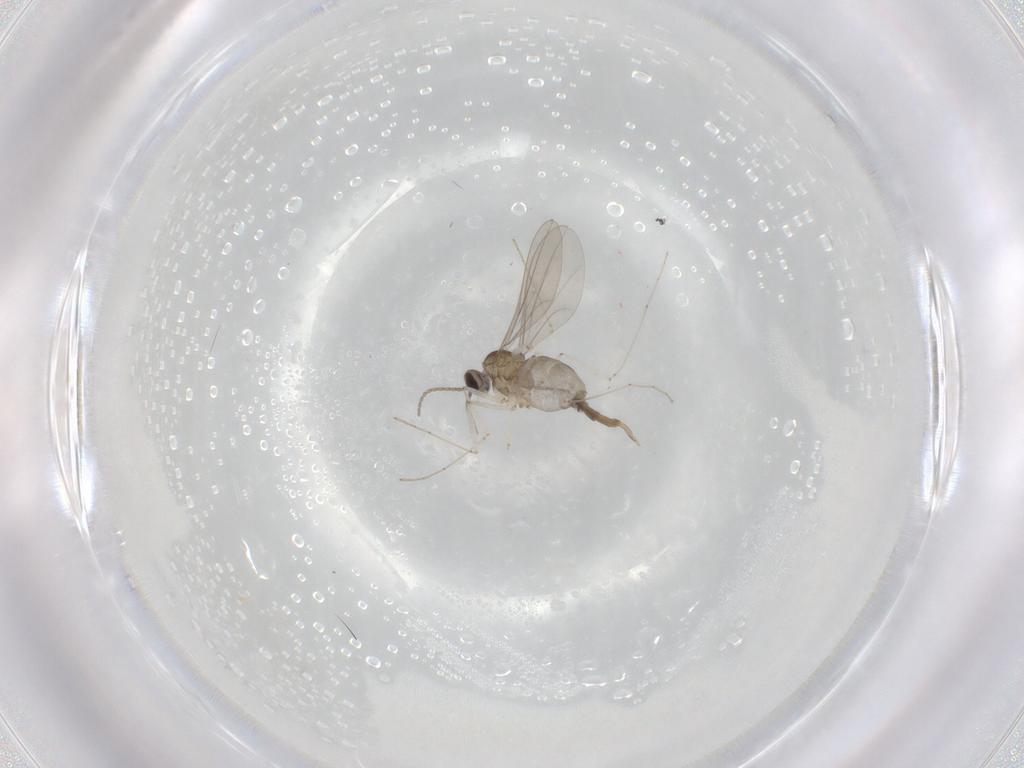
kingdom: Animalia
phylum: Arthropoda
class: Insecta
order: Diptera
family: Cecidomyiidae
